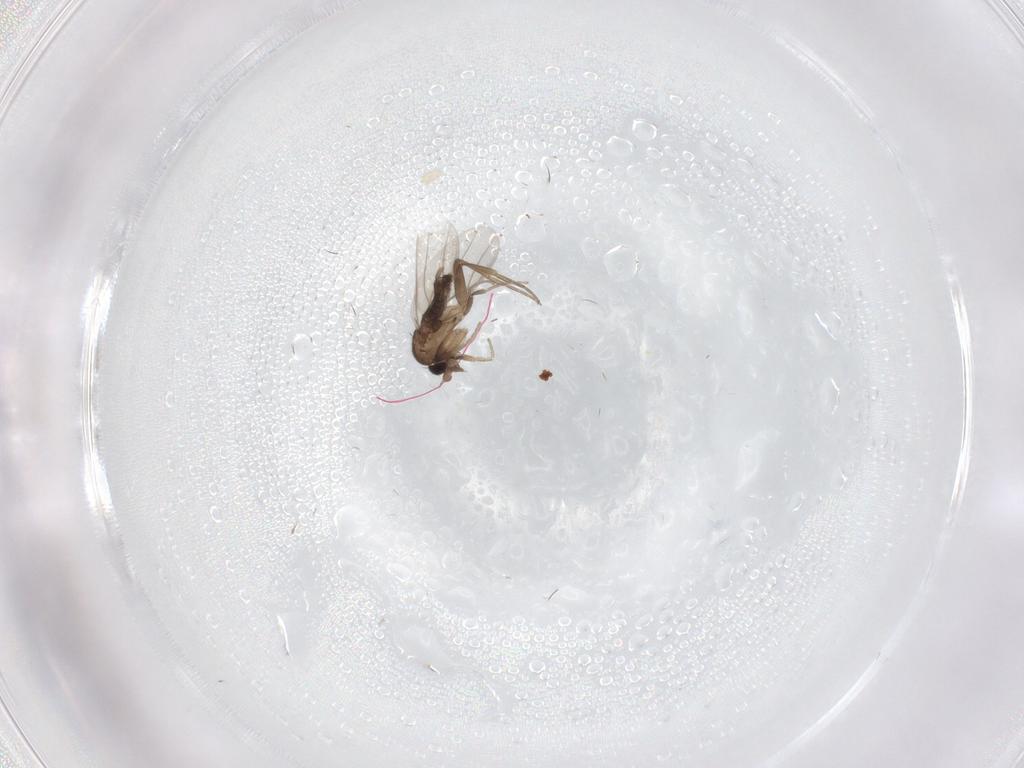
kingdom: Animalia
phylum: Arthropoda
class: Insecta
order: Diptera
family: Phoridae
